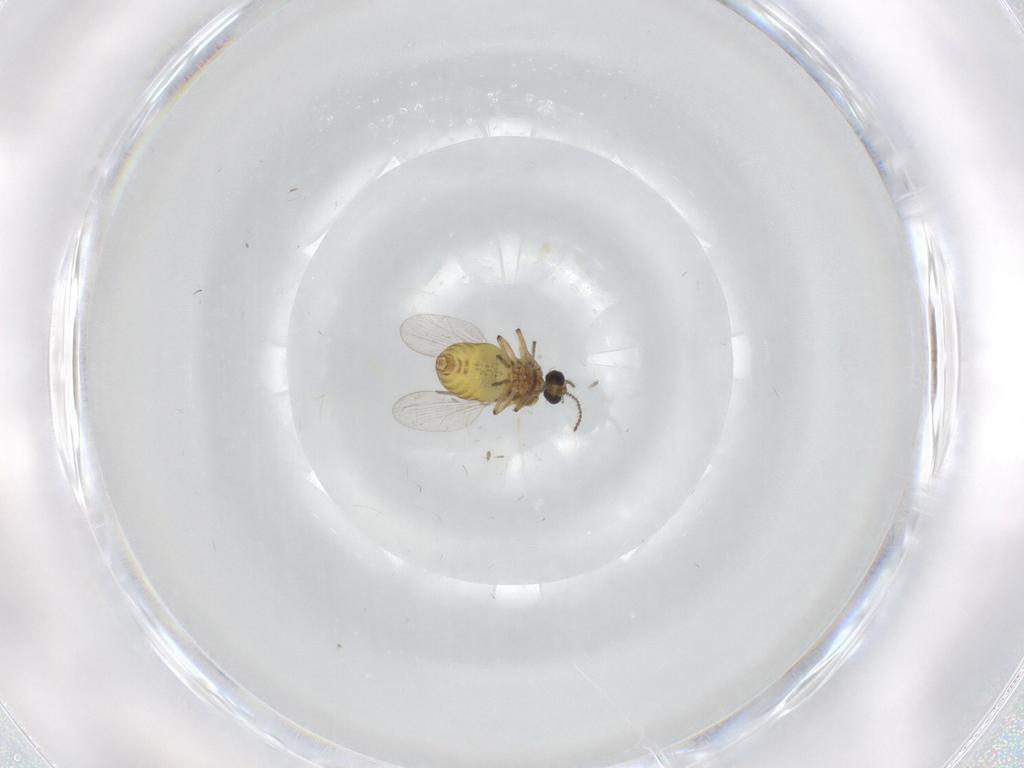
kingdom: Animalia
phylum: Arthropoda
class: Insecta
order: Diptera
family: Ceratopogonidae
